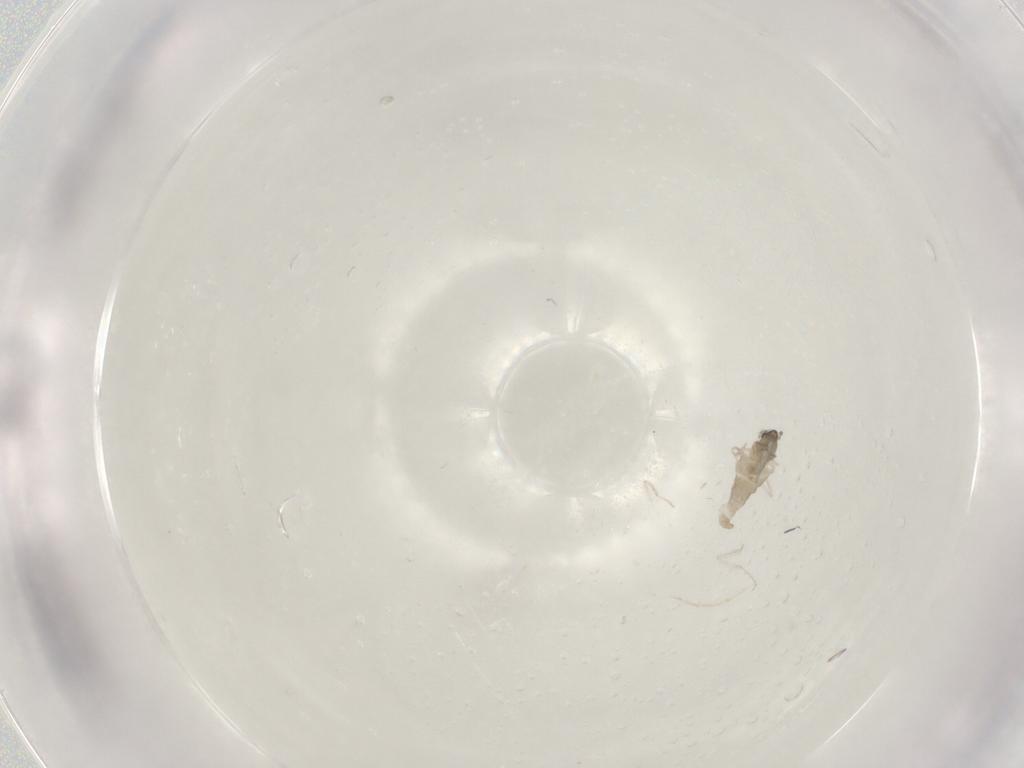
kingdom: Animalia
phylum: Arthropoda
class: Insecta
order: Diptera
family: Cecidomyiidae
